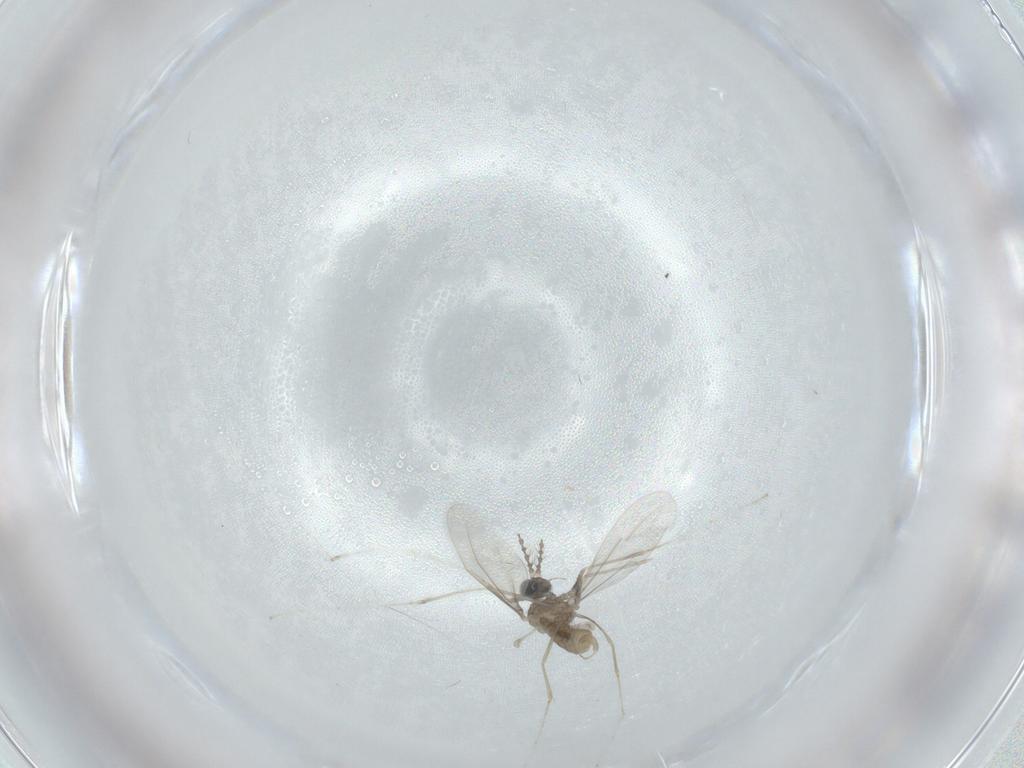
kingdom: Animalia
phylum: Arthropoda
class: Insecta
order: Diptera
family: Cecidomyiidae
